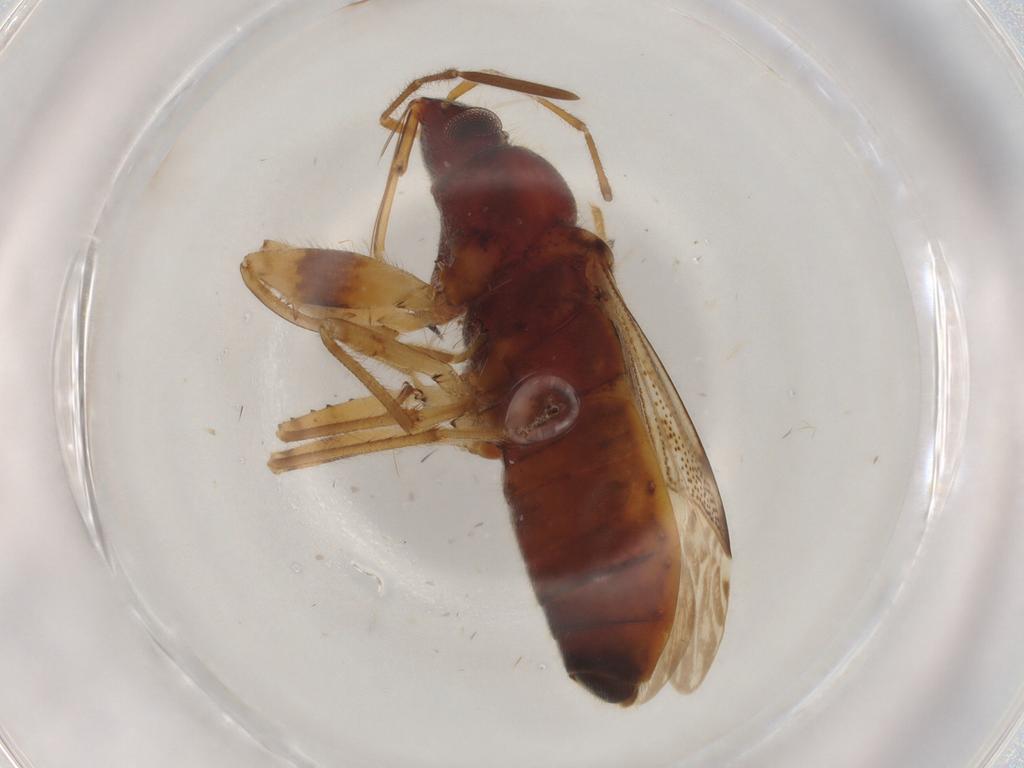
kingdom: Animalia
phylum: Arthropoda
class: Insecta
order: Hemiptera
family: Rhyparochromidae
